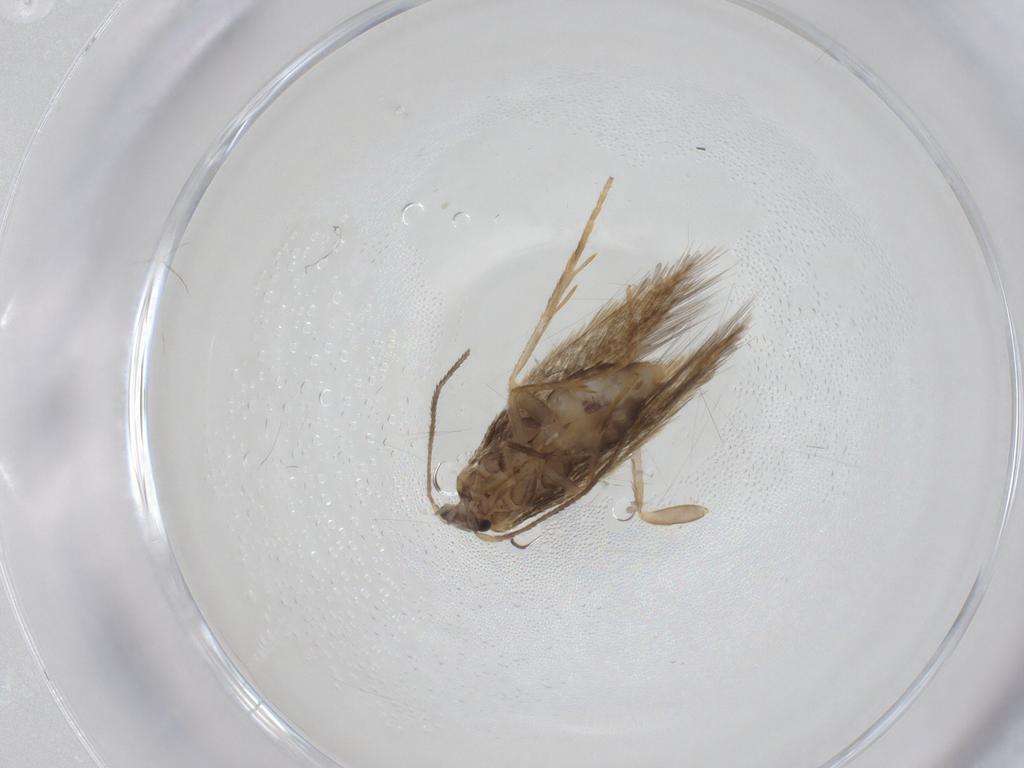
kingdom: Animalia
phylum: Arthropoda
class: Insecta
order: Lepidoptera
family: Nepticulidae
